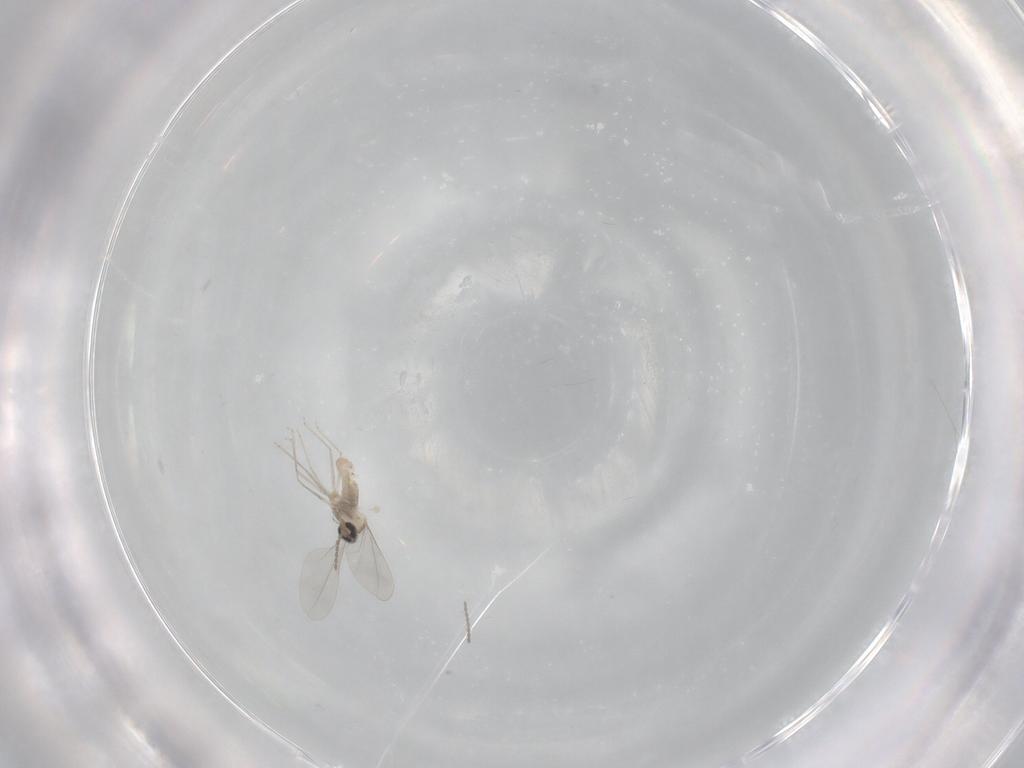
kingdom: Animalia
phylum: Arthropoda
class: Insecta
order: Diptera
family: Cecidomyiidae
